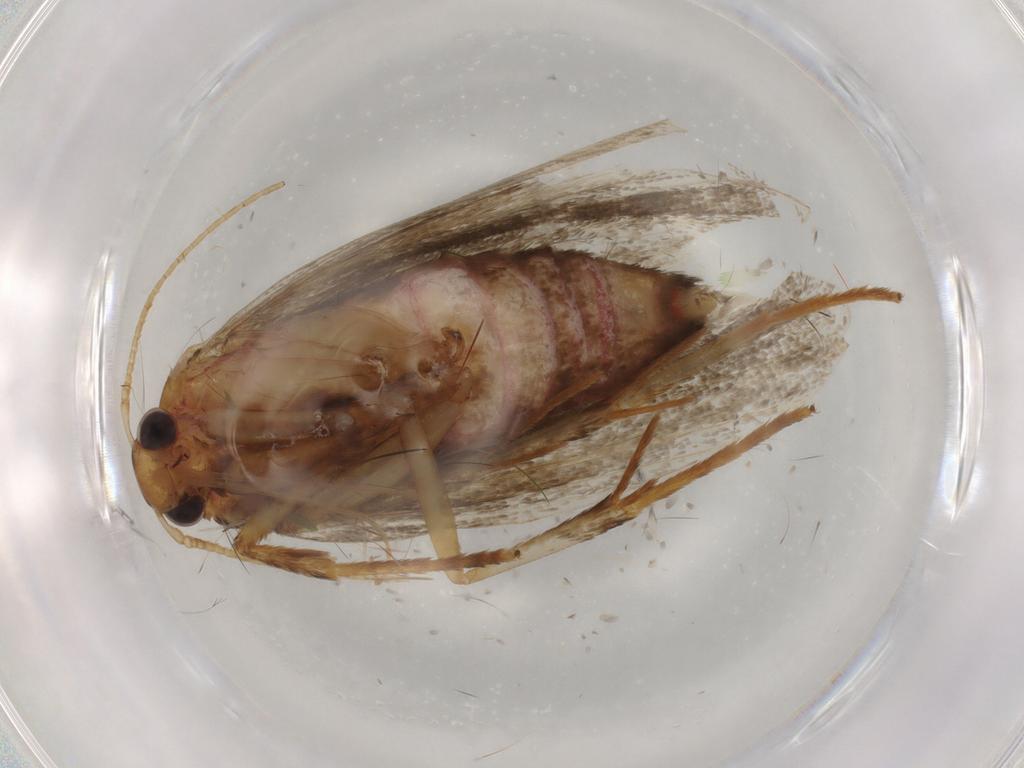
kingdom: Animalia
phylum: Arthropoda
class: Insecta
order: Lepidoptera
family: Lecithoceridae
